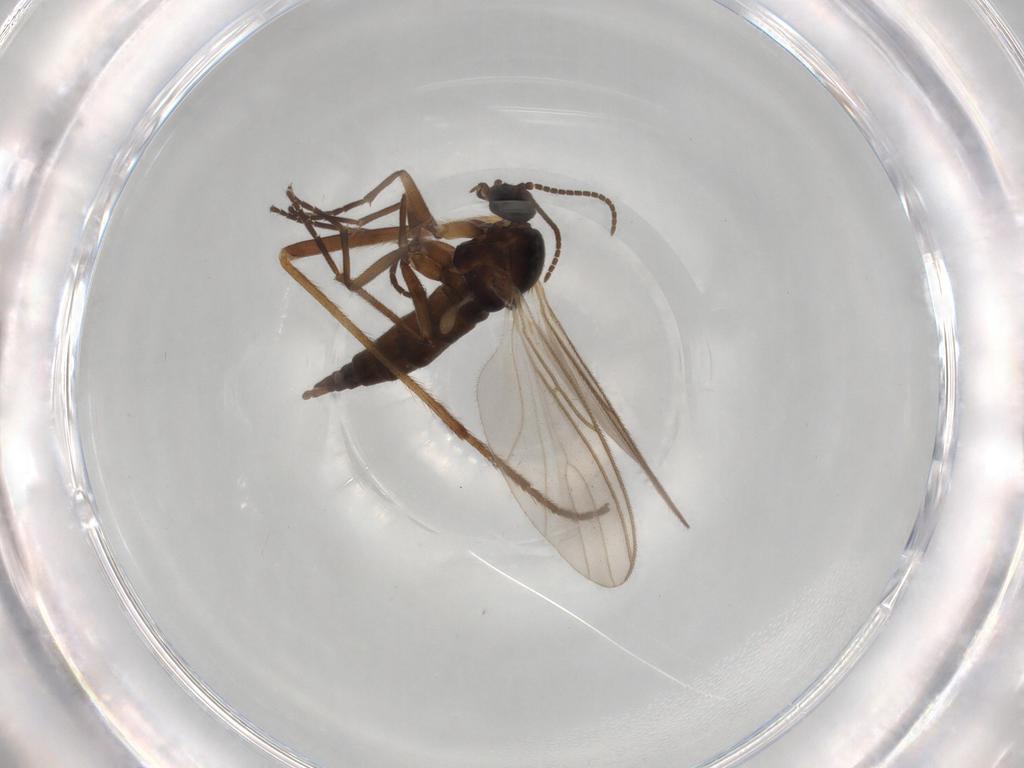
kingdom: Animalia
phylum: Arthropoda
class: Insecta
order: Diptera
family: Sciaridae
